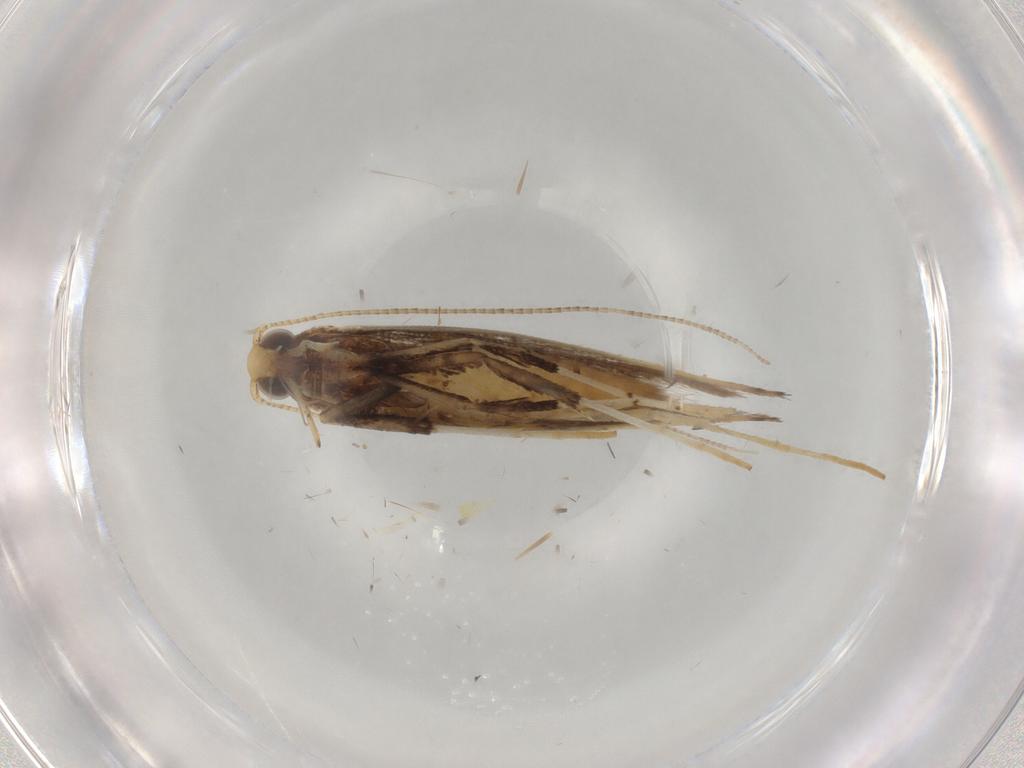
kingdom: Animalia
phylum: Arthropoda
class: Insecta
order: Lepidoptera
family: Gracillariidae
